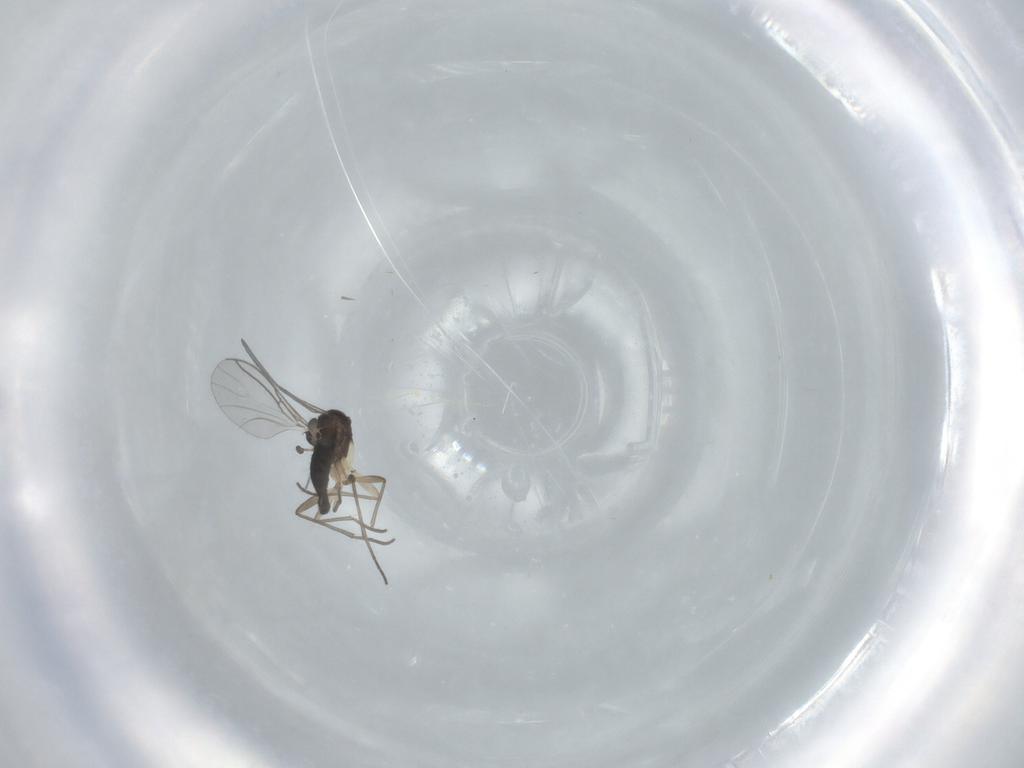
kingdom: Animalia
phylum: Arthropoda
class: Insecta
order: Diptera
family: Sciaridae
